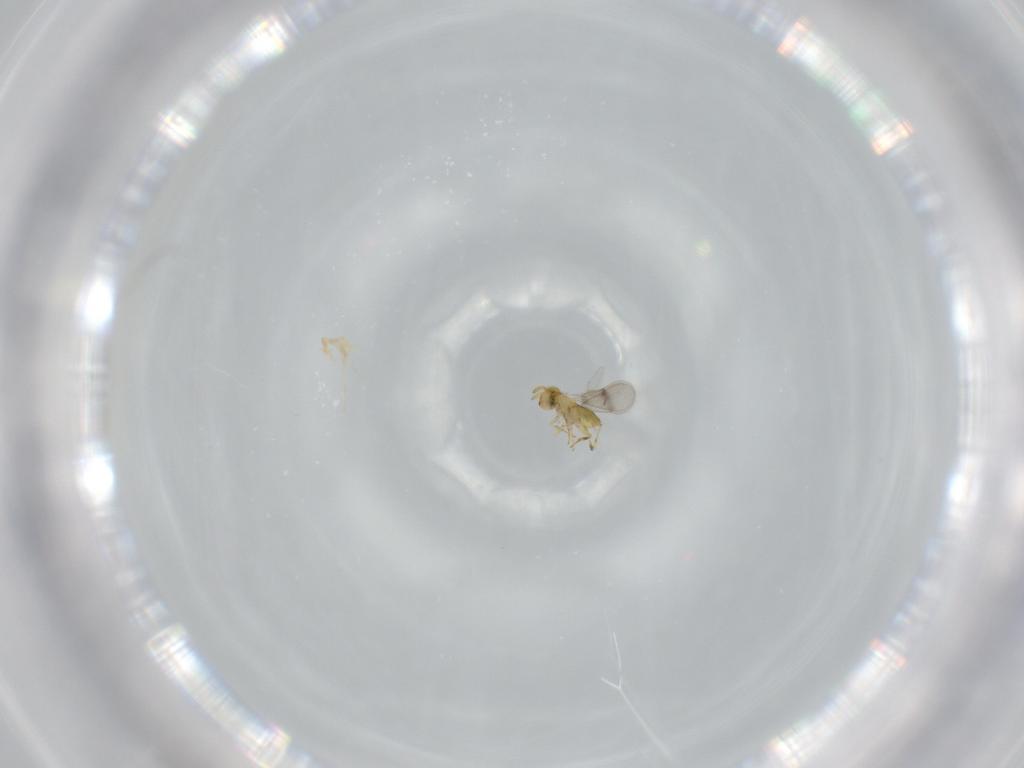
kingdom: Animalia
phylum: Arthropoda
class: Insecta
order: Hymenoptera
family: Aphelinidae
